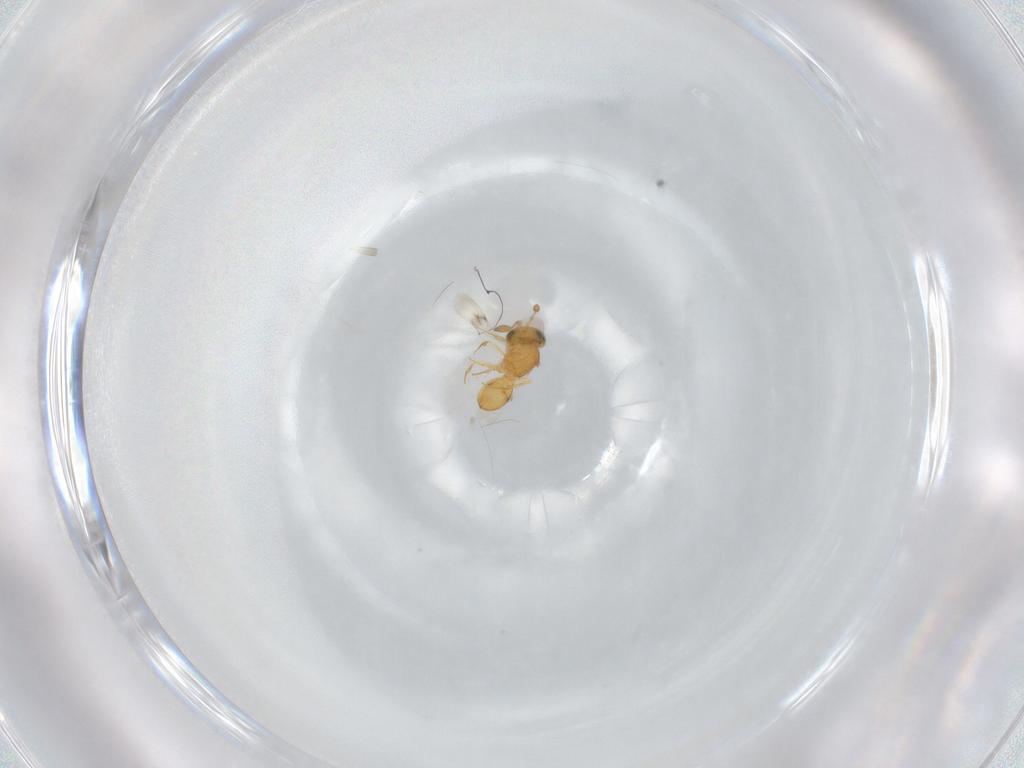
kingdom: Animalia
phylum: Arthropoda
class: Insecta
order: Hymenoptera
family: Scelionidae
